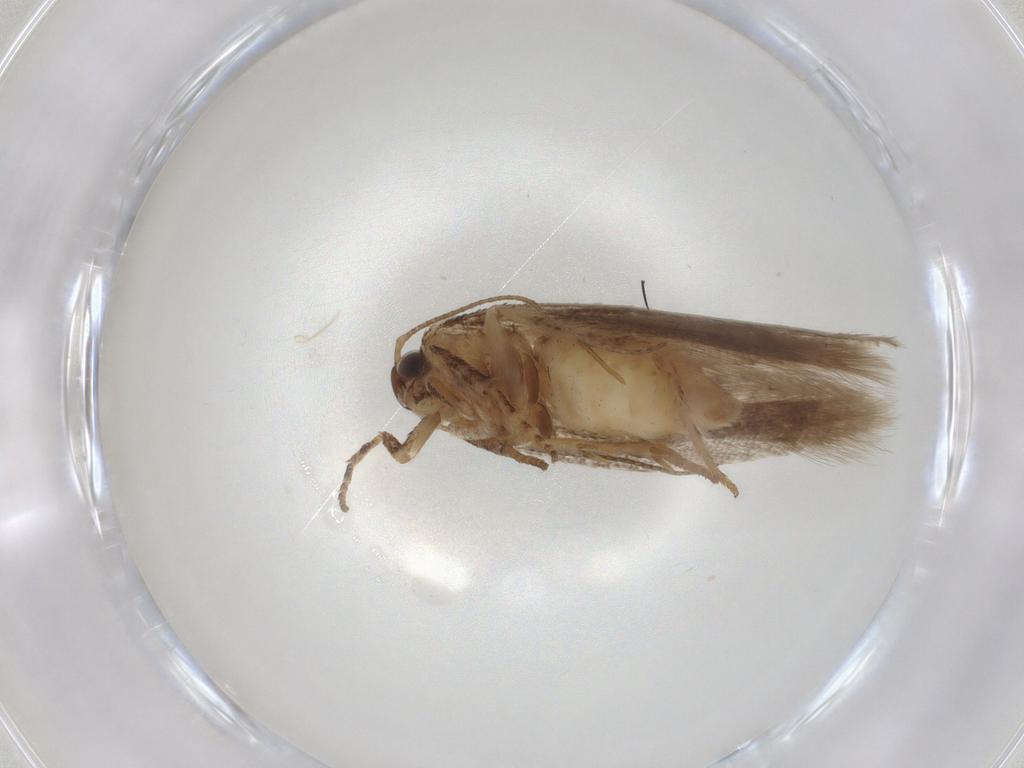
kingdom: Animalia
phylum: Arthropoda
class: Insecta
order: Lepidoptera
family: Gelechiidae
